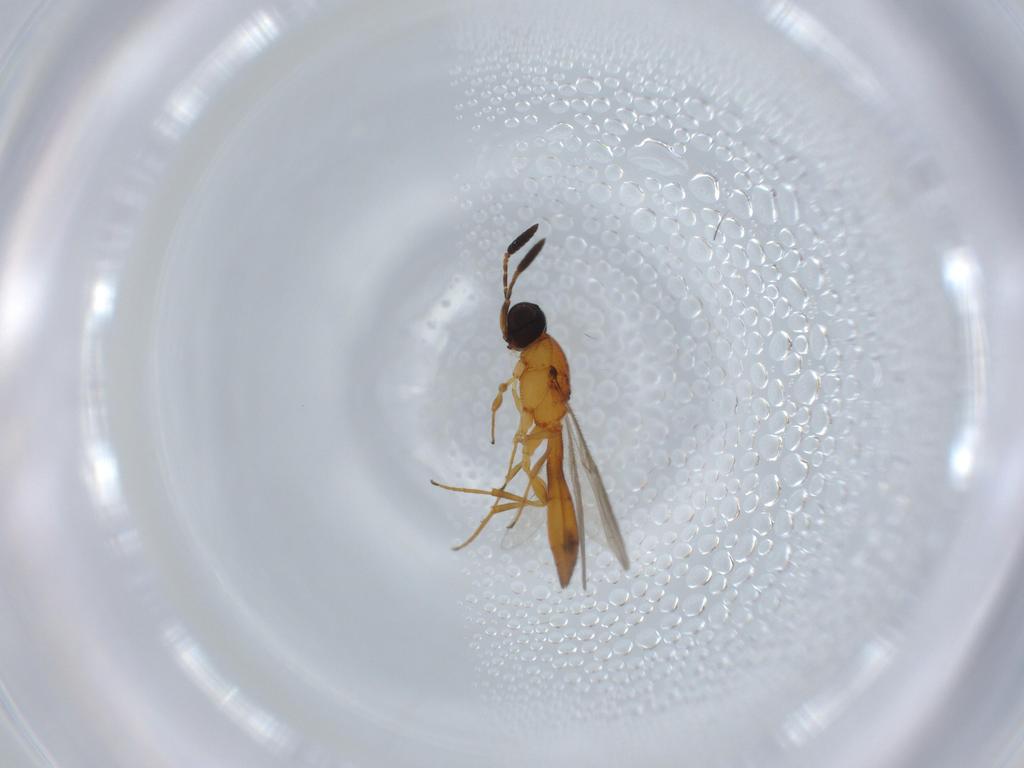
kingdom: Animalia
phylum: Arthropoda
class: Insecta
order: Hymenoptera
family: Scelionidae
